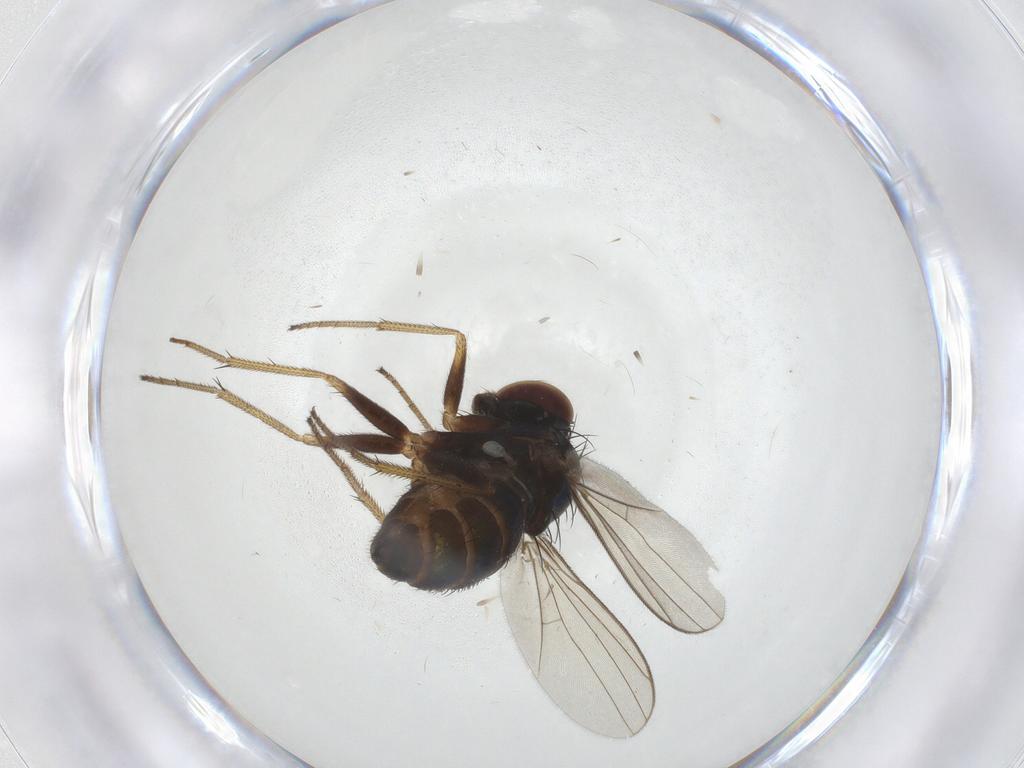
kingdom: Animalia
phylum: Arthropoda
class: Insecta
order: Diptera
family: Dolichopodidae
